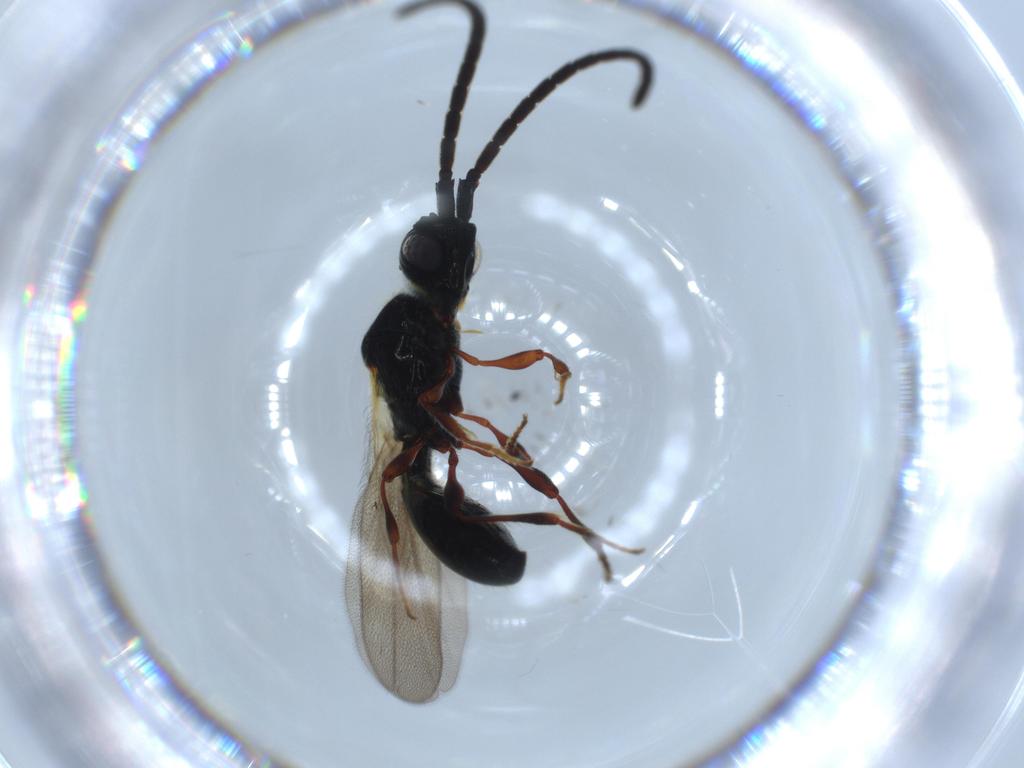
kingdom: Animalia
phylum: Arthropoda
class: Insecta
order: Hymenoptera
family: Diapriidae
